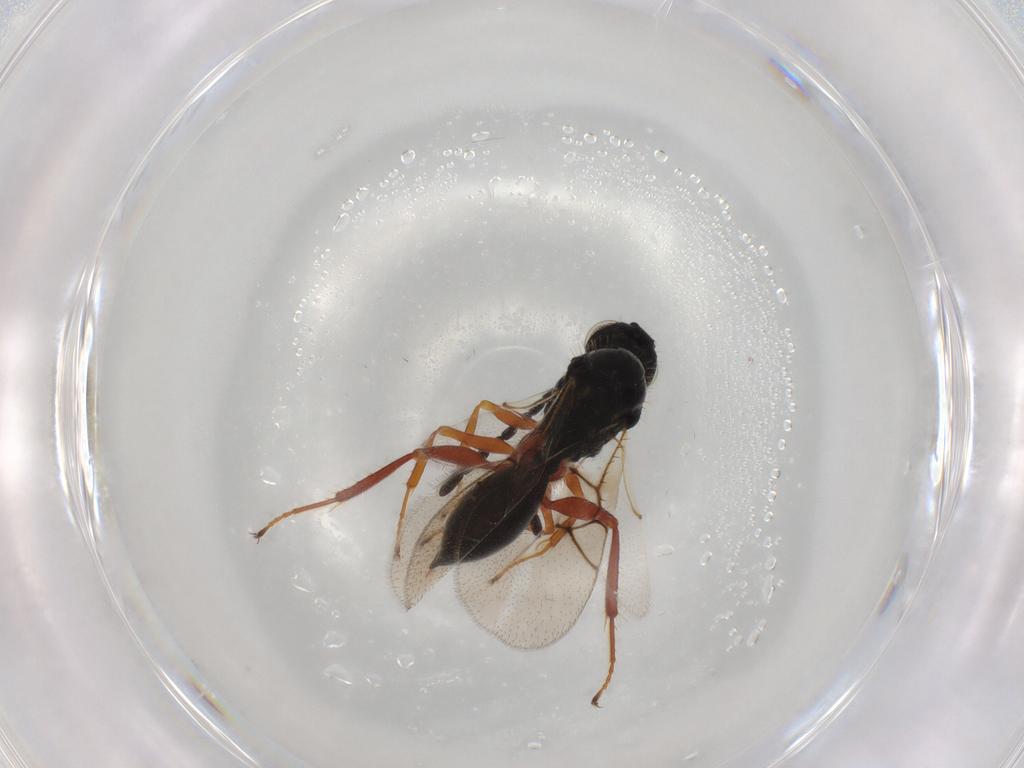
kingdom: Animalia
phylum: Arthropoda
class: Insecta
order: Hymenoptera
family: Figitidae
